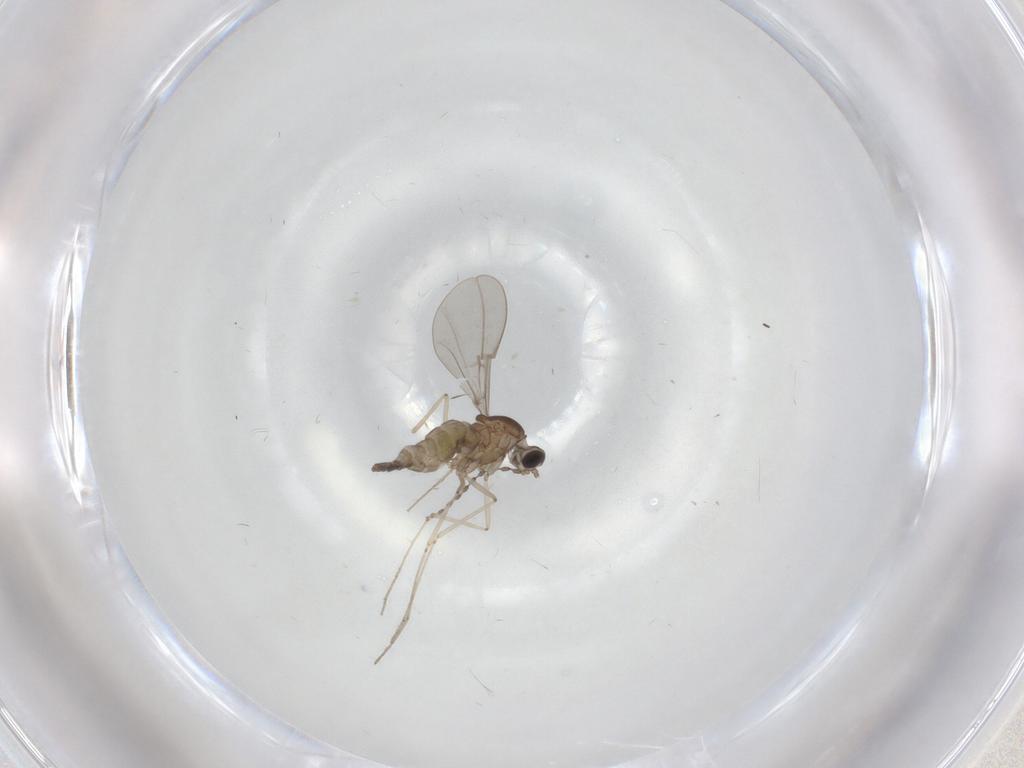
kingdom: Animalia
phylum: Arthropoda
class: Insecta
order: Diptera
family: Cecidomyiidae
